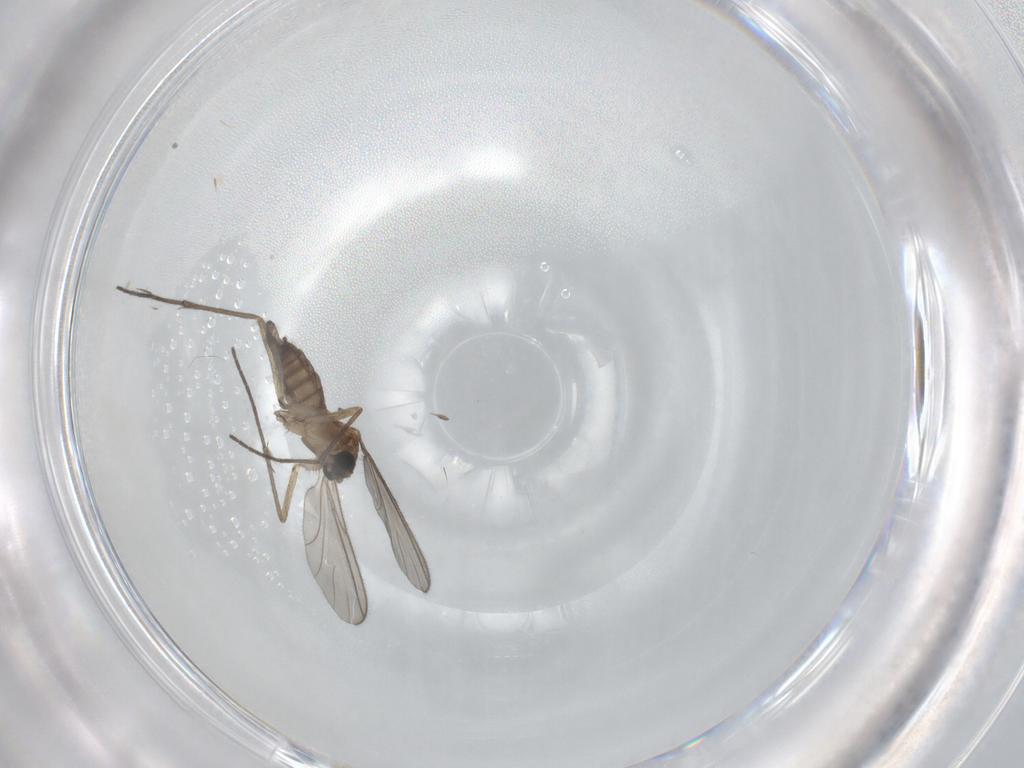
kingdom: Animalia
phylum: Arthropoda
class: Insecta
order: Diptera
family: Sciaridae
